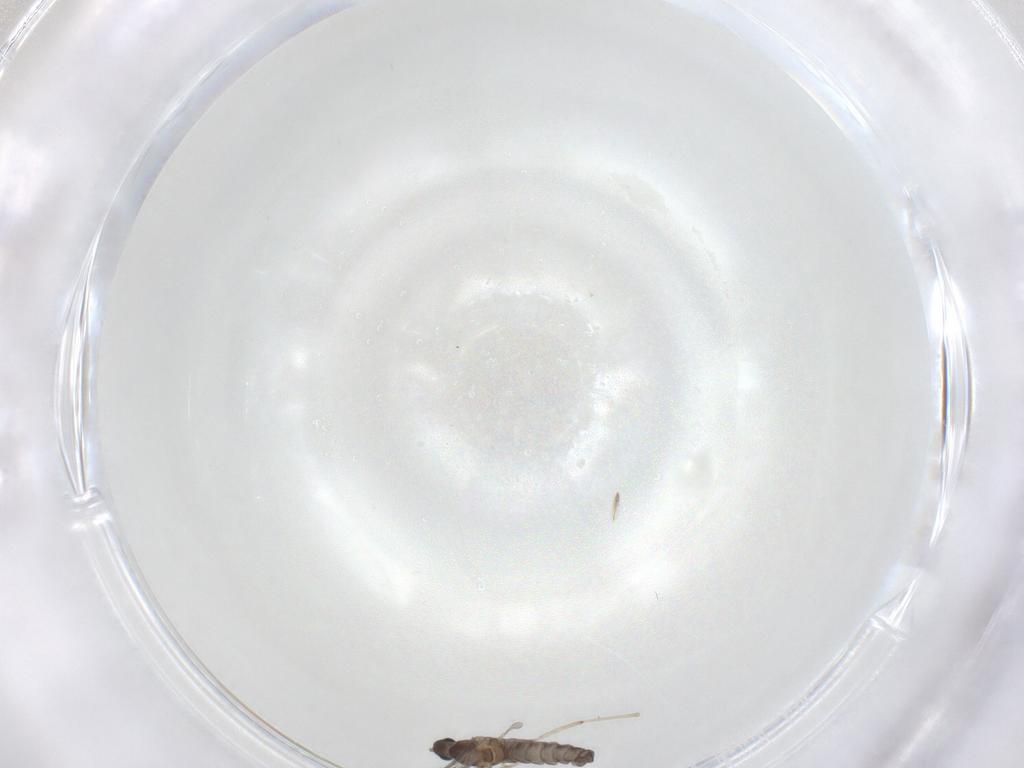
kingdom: Animalia
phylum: Arthropoda
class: Insecta
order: Diptera
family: Cecidomyiidae
